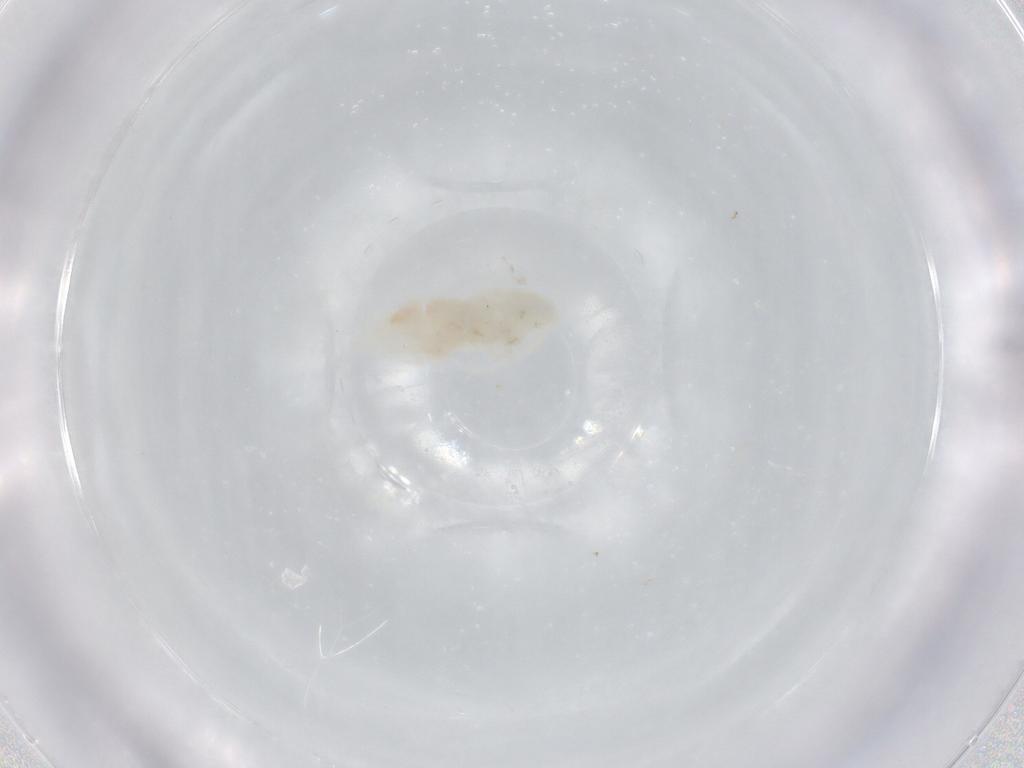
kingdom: Animalia
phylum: Arthropoda
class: Copepoda
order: Calanoida
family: Diaptomidae
